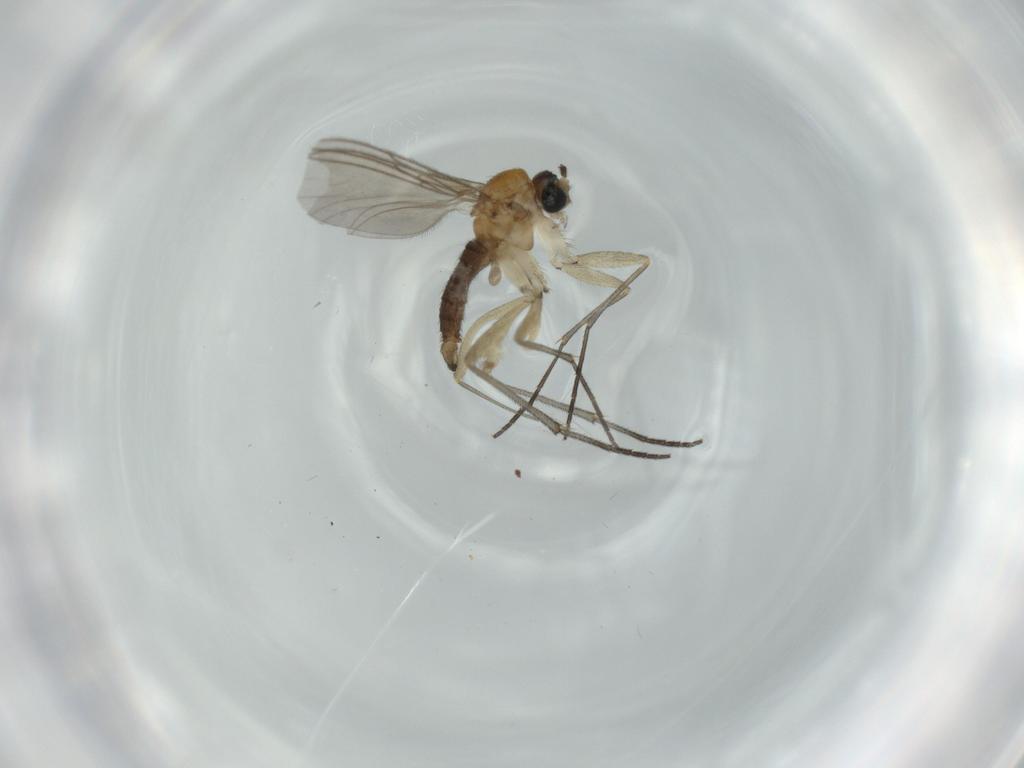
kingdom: Animalia
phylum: Arthropoda
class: Insecta
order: Diptera
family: Sciaridae
